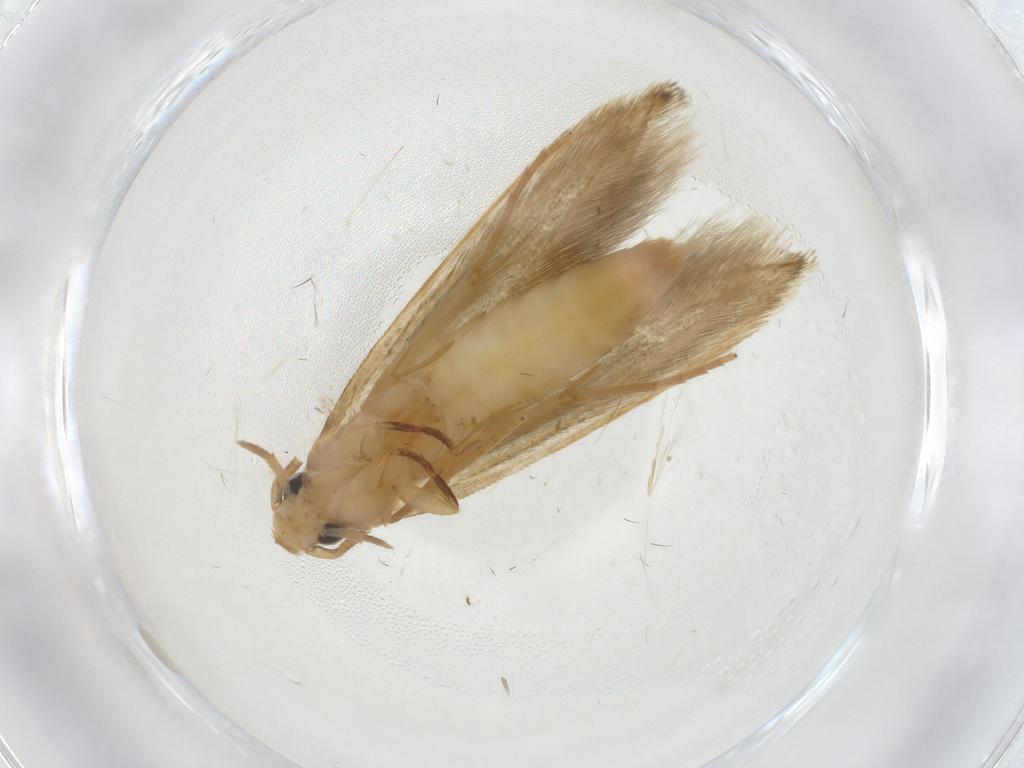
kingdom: Animalia
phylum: Arthropoda
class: Insecta
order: Lepidoptera
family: Tineidae
